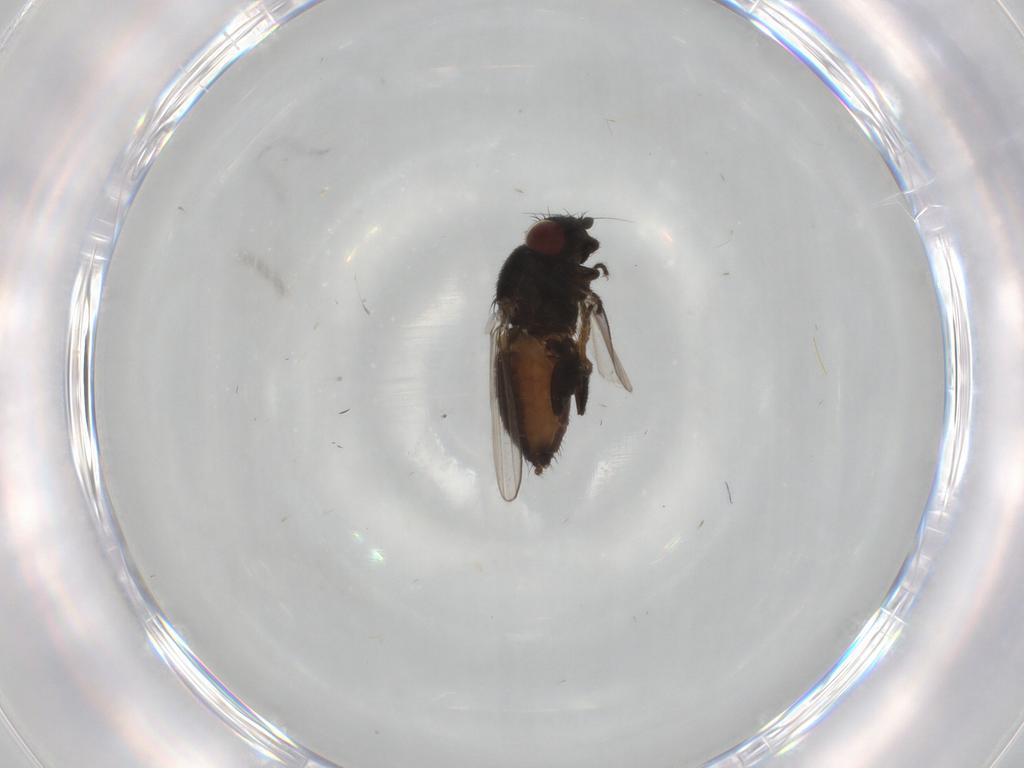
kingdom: Animalia
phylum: Arthropoda
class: Insecta
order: Diptera
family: Milichiidae
